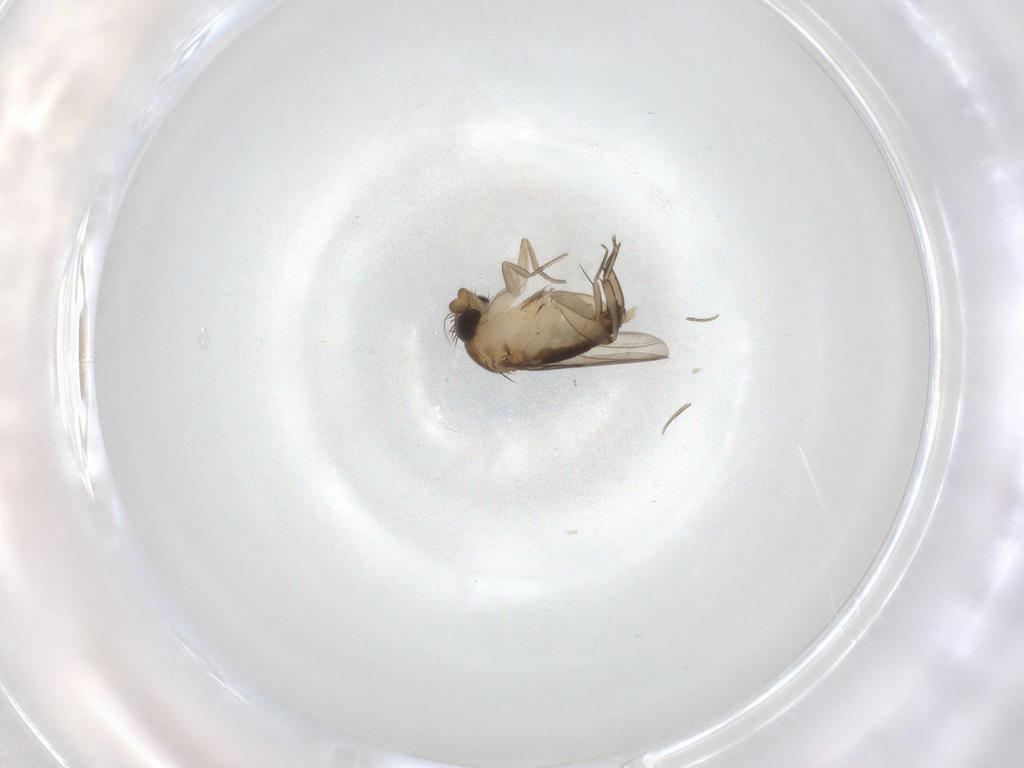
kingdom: Animalia
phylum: Arthropoda
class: Insecta
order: Diptera
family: Phoridae
